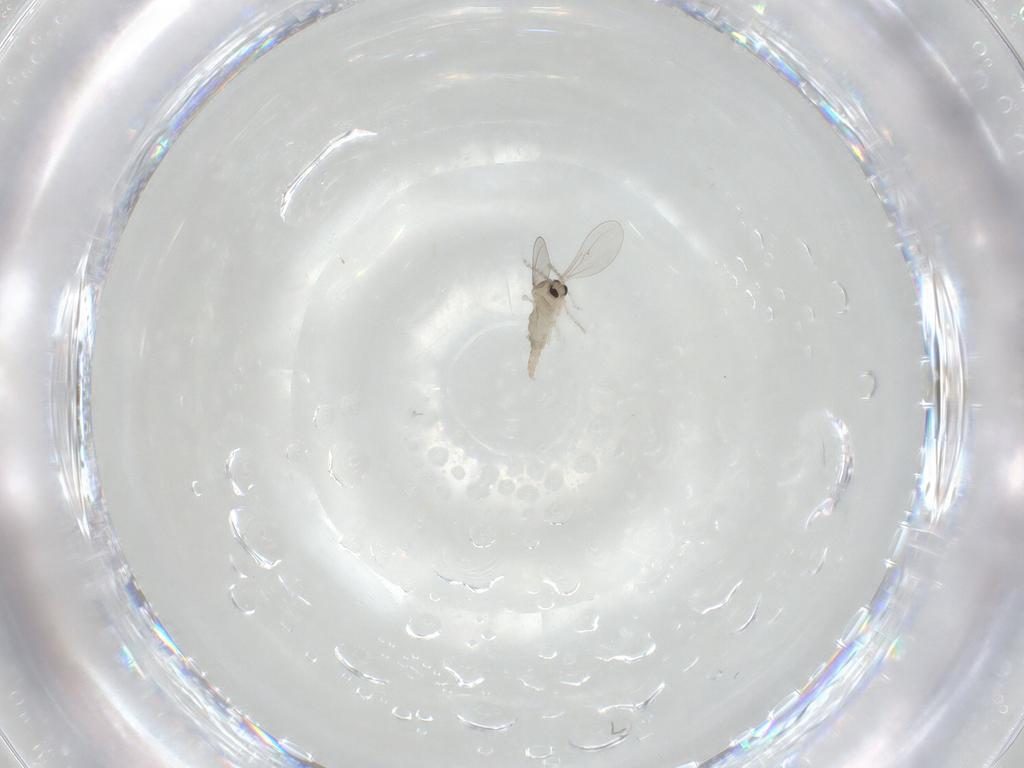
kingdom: Animalia
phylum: Arthropoda
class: Insecta
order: Diptera
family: Cecidomyiidae
